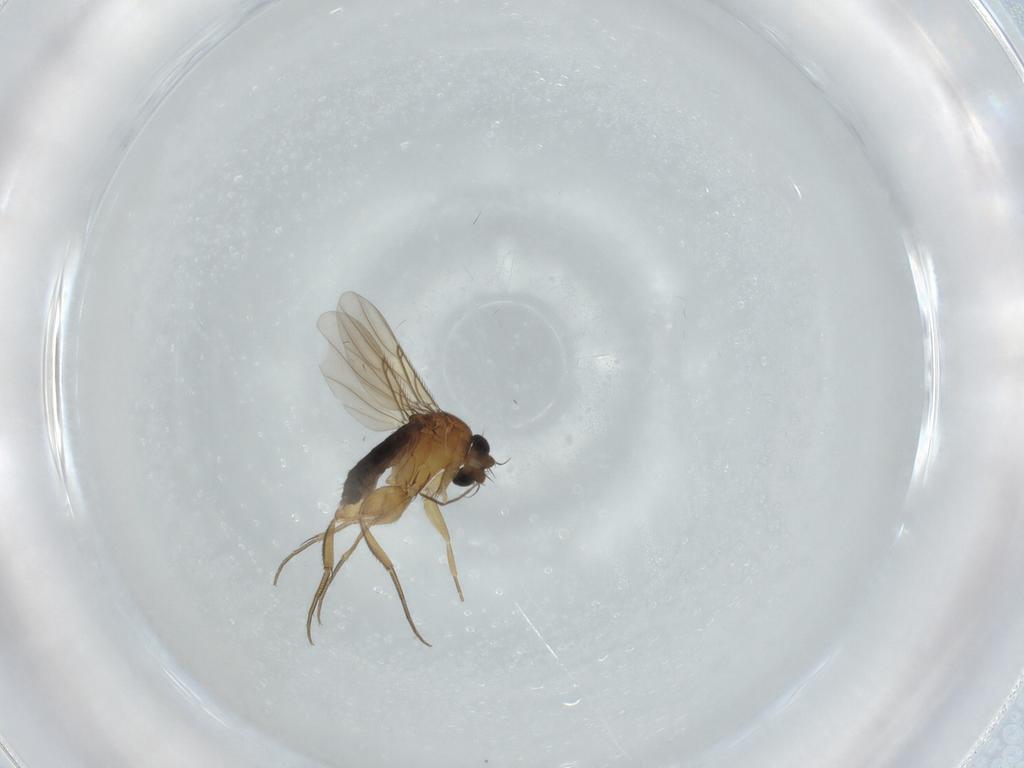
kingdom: Animalia
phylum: Arthropoda
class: Insecta
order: Diptera
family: Phoridae
